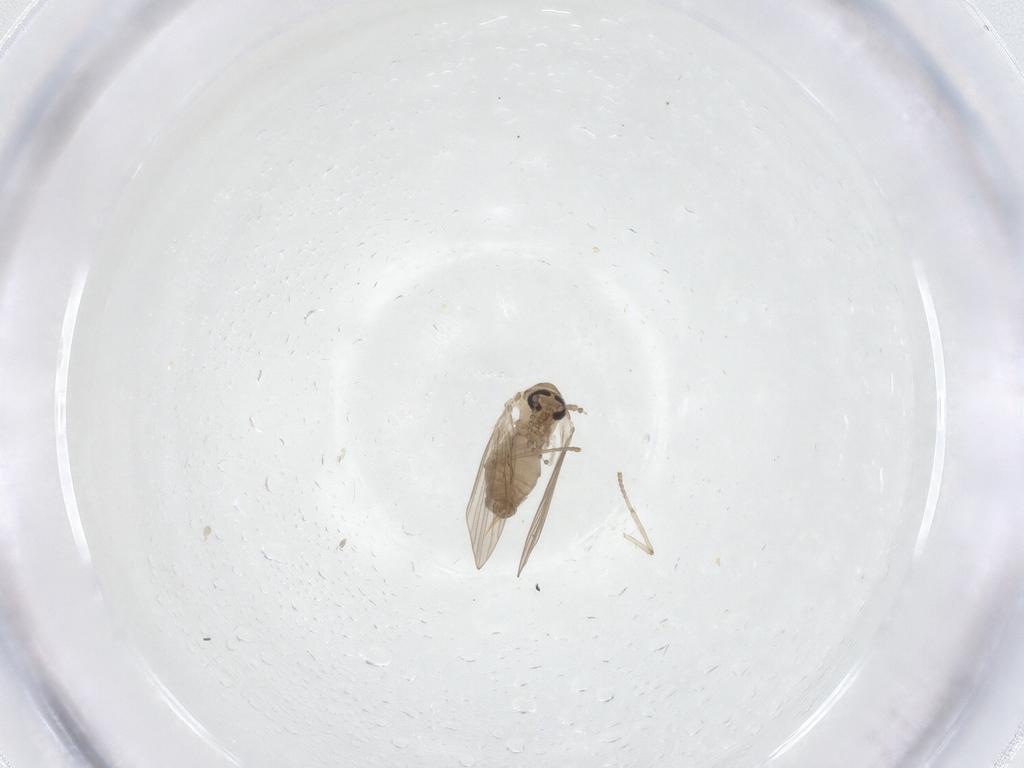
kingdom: Animalia
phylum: Arthropoda
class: Insecta
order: Diptera
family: Psychodidae
